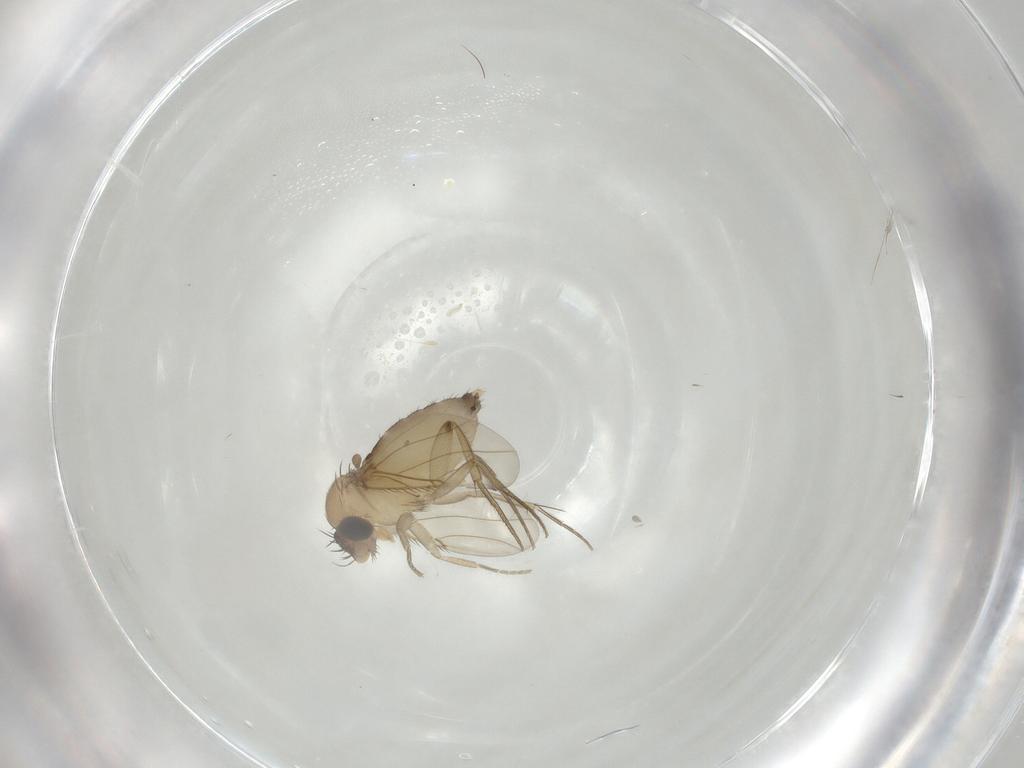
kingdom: Animalia
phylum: Arthropoda
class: Insecta
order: Diptera
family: Phoridae
